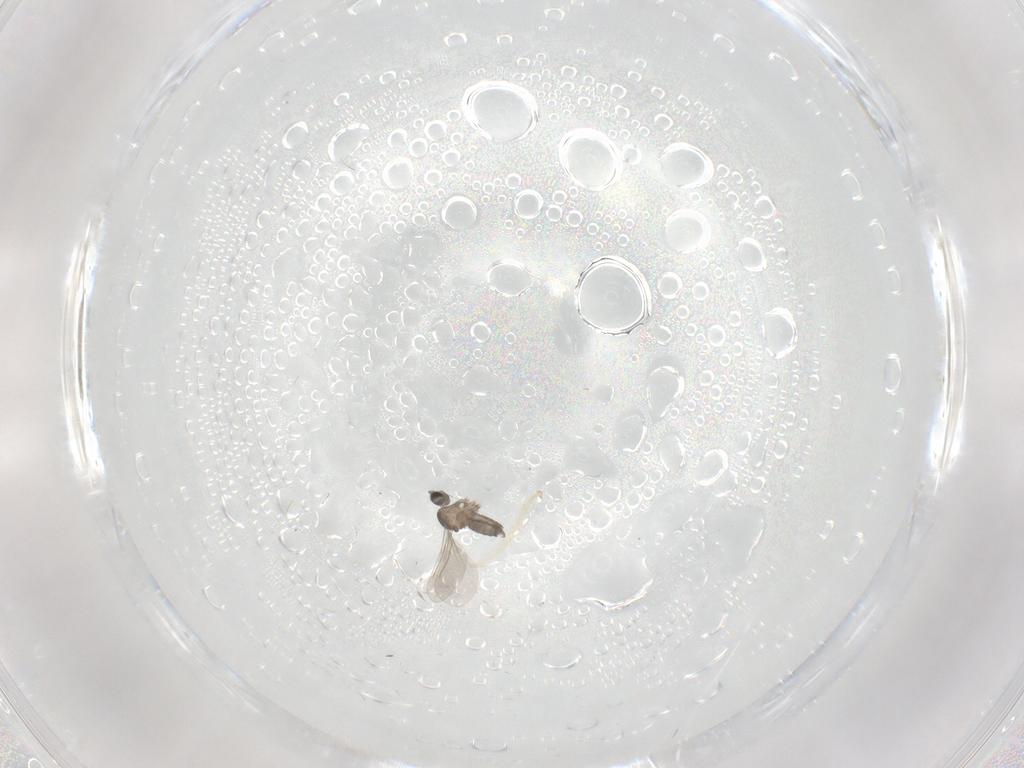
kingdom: Animalia
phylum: Arthropoda
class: Insecta
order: Diptera
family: Cecidomyiidae
